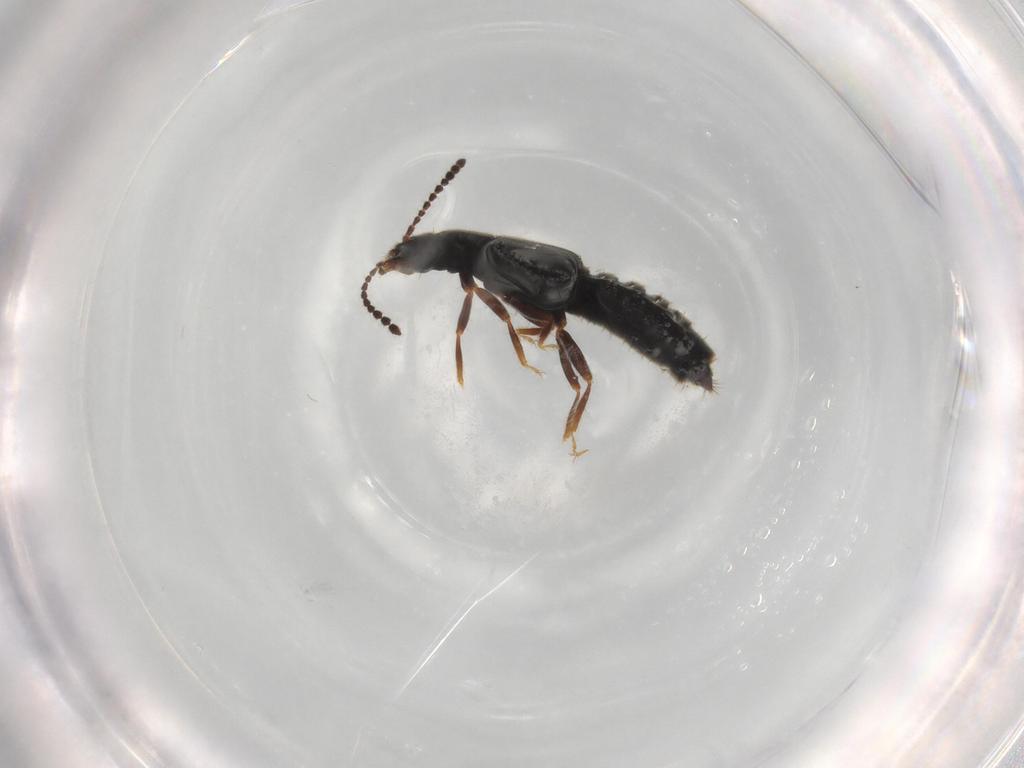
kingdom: Animalia
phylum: Arthropoda
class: Insecta
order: Coleoptera
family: Staphylinidae
